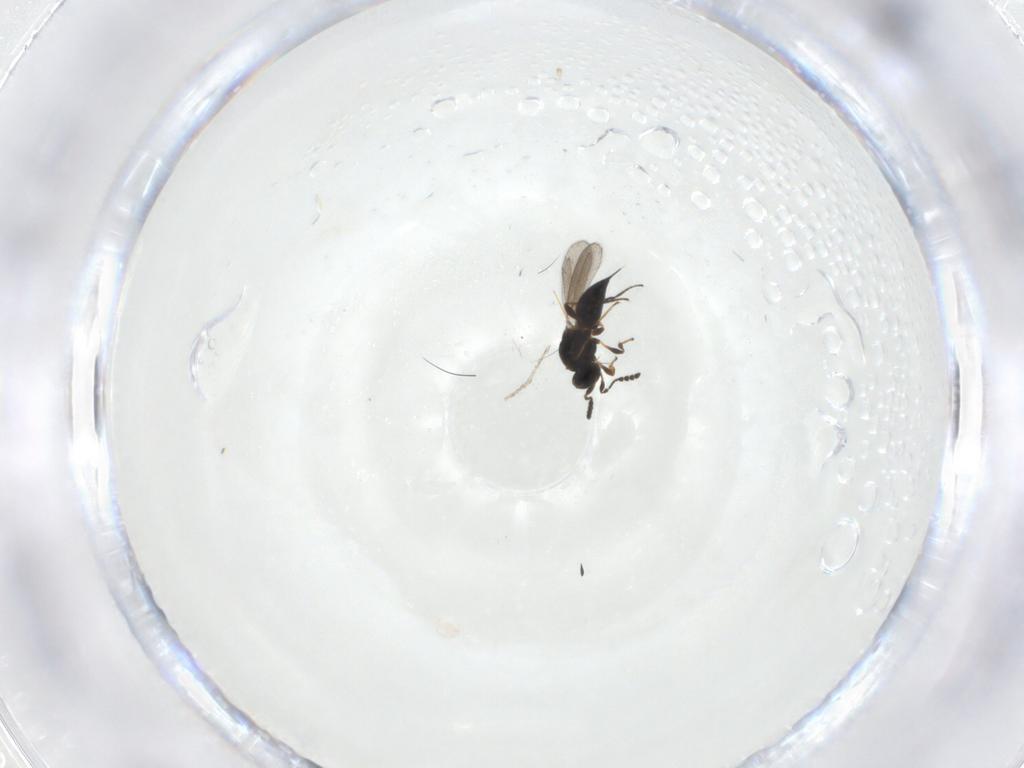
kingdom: Animalia
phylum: Arthropoda
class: Insecta
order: Hymenoptera
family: Platygastridae
